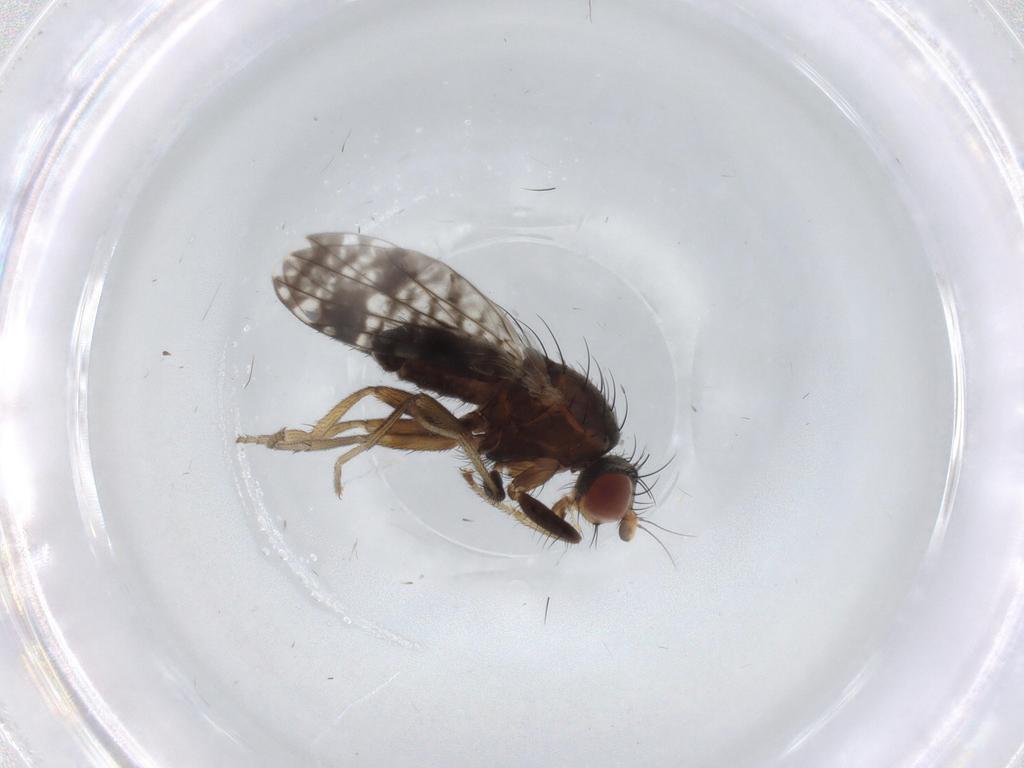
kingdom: Animalia
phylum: Arthropoda
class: Insecta
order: Diptera
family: Tephritidae
